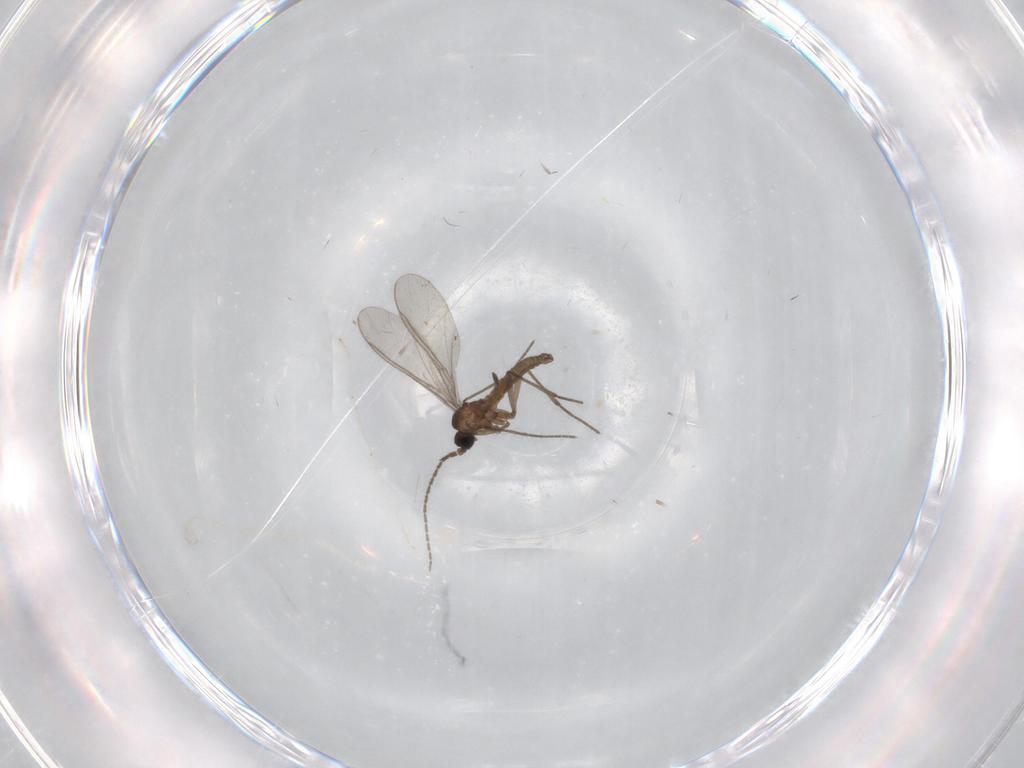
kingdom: Animalia
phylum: Arthropoda
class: Insecta
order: Diptera
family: Sciaridae
